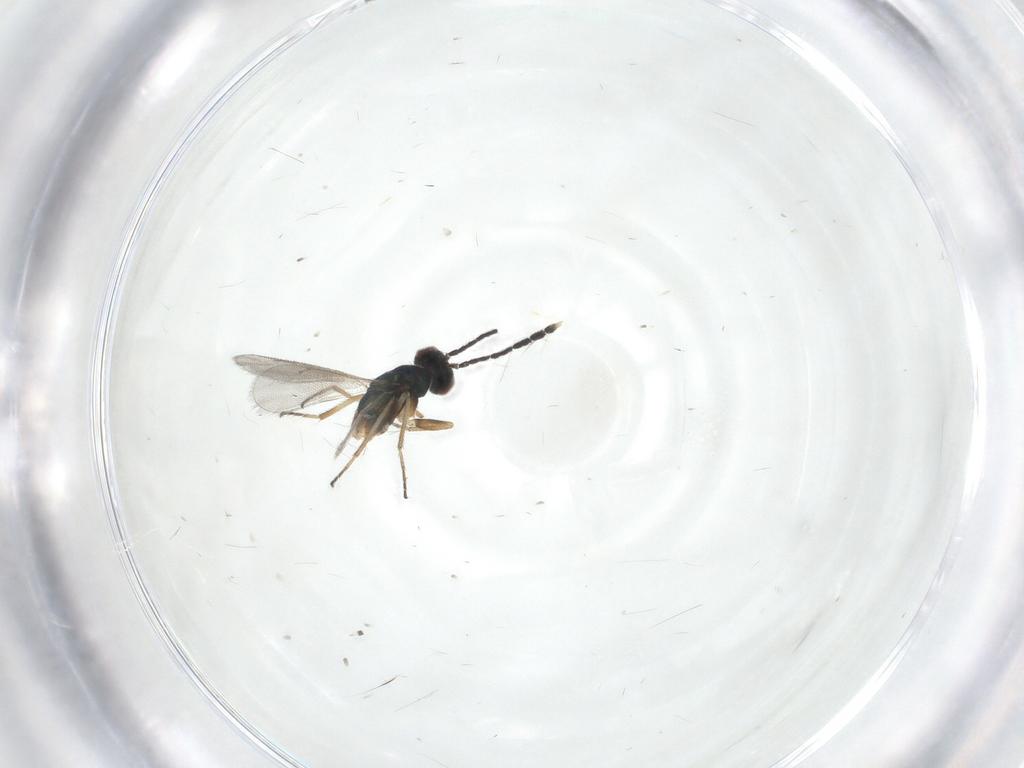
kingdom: Animalia
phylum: Arthropoda
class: Insecta
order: Hymenoptera
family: Eulophidae
